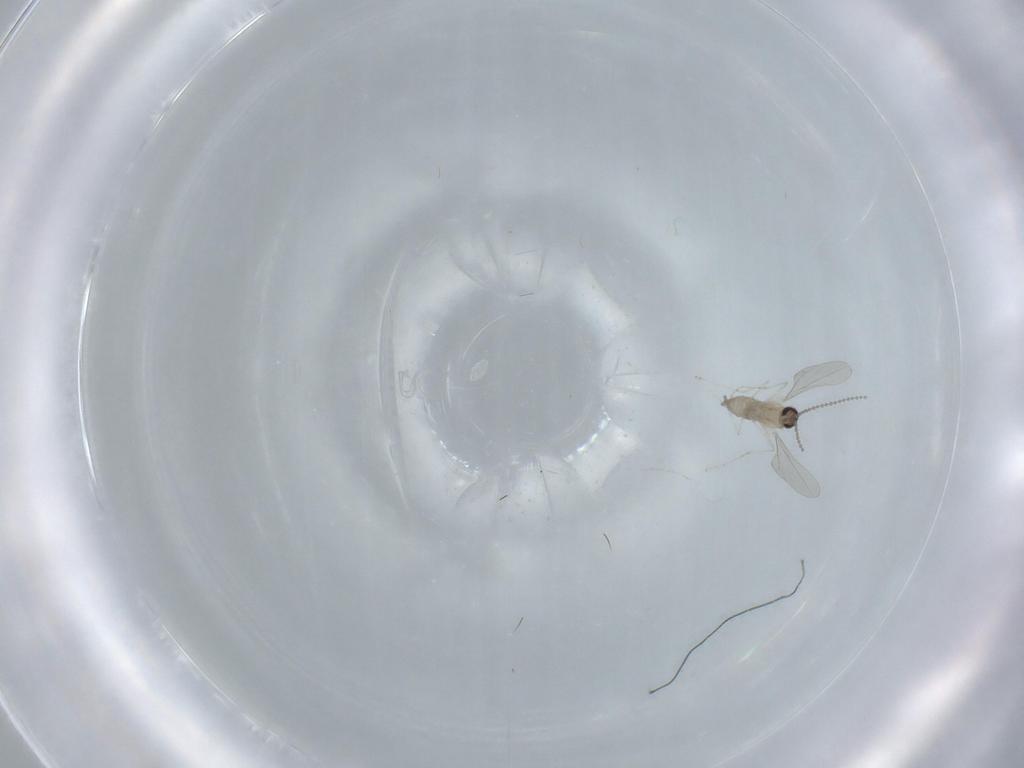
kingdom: Animalia
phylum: Arthropoda
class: Insecta
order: Diptera
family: Cecidomyiidae
